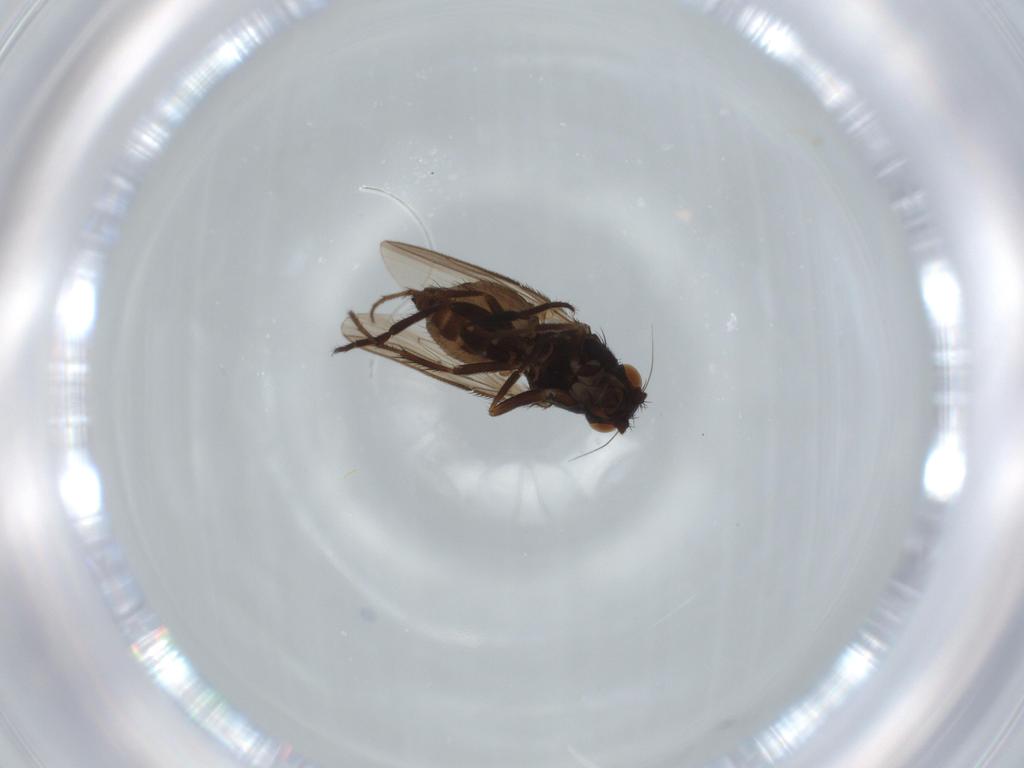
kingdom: Animalia
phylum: Arthropoda
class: Insecta
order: Diptera
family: Sphaeroceridae
